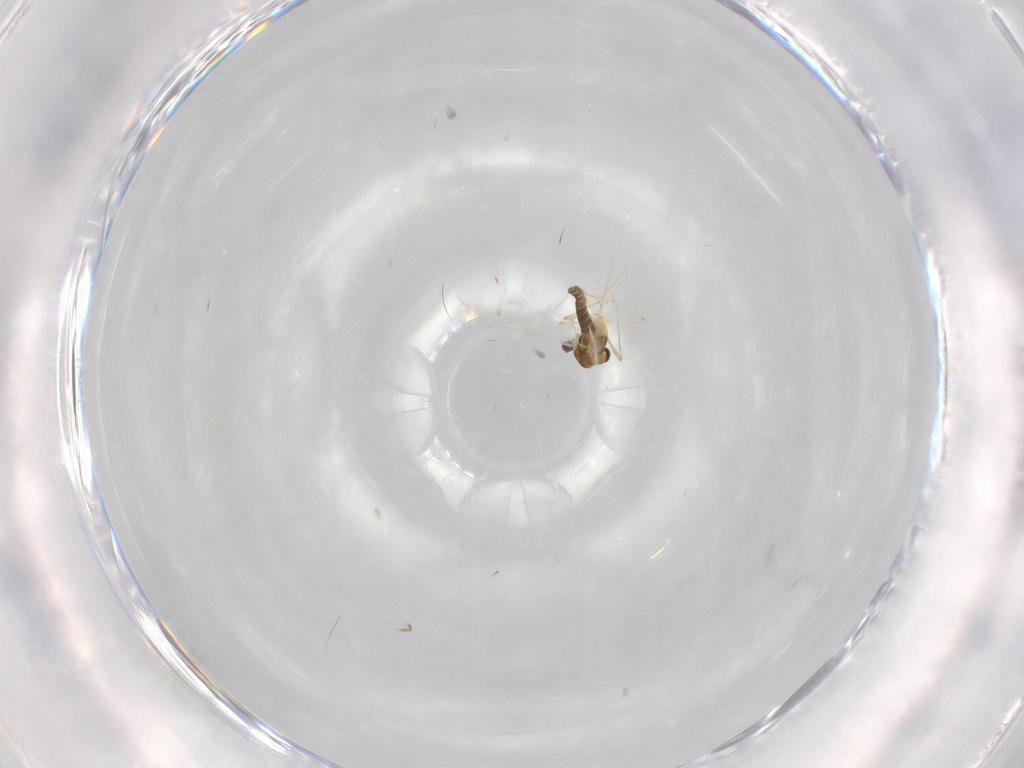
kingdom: Animalia
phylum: Arthropoda
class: Insecta
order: Diptera
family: Chironomidae
